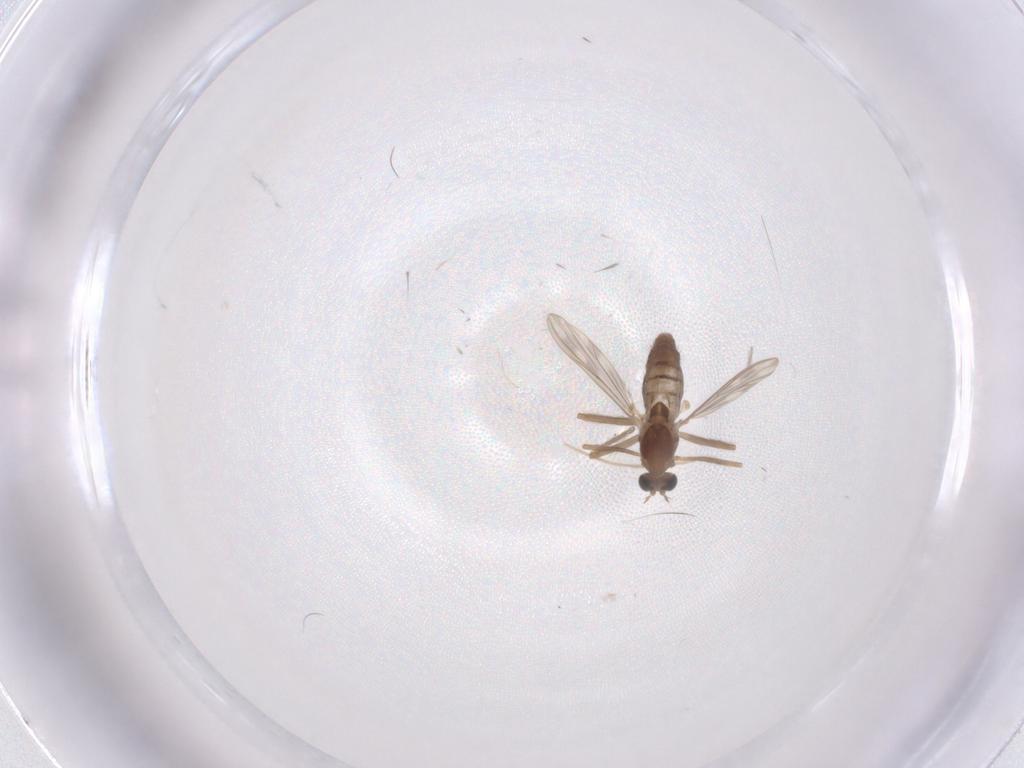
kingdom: Animalia
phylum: Arthropoda
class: Insecta
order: Diptera
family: Chironomidae
